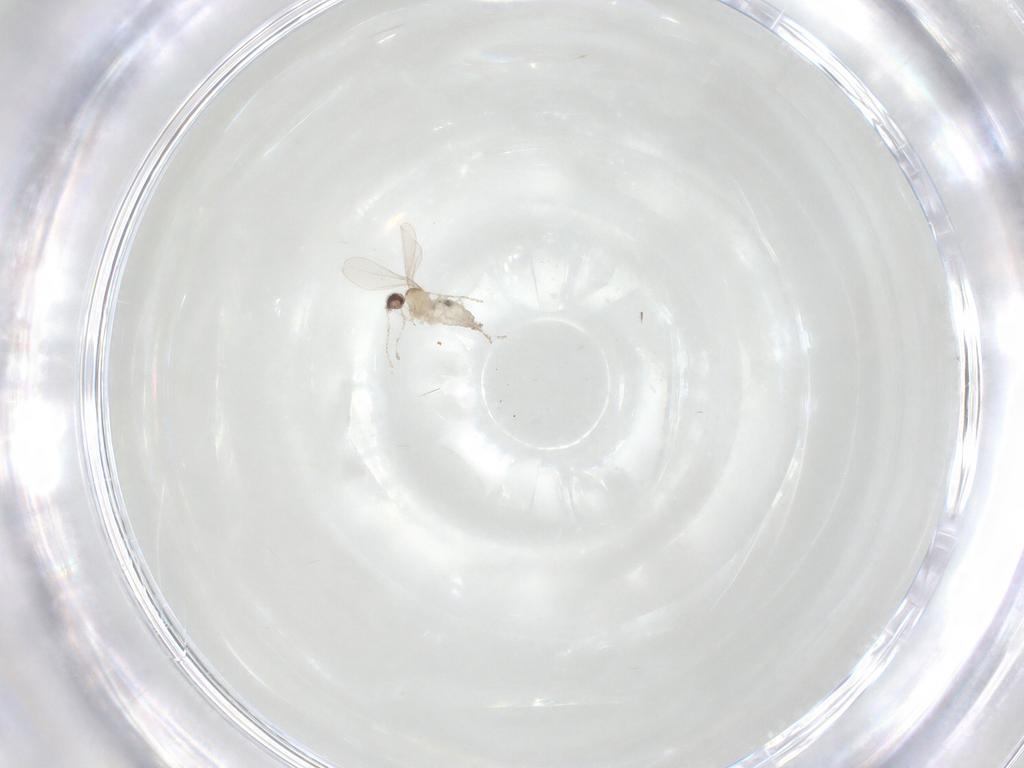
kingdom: Animalia
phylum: Arthropoda
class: Insecta
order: Diptera
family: Cecidomyiidae
